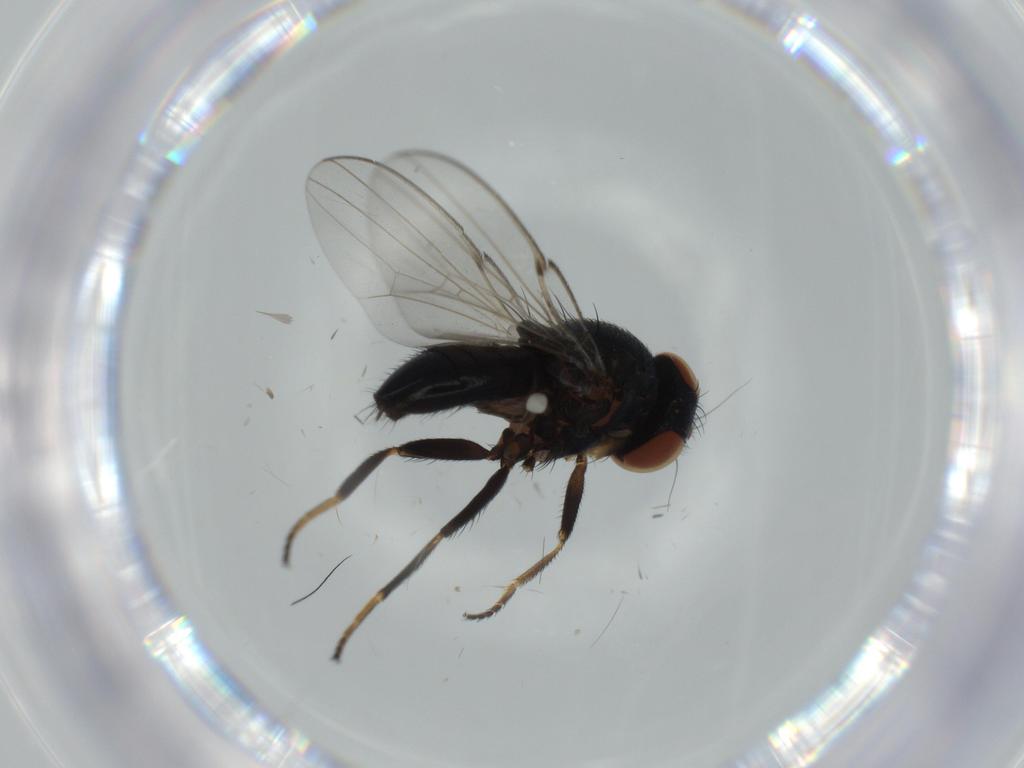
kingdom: Animalia
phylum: Arthropoda
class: Insecta
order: Diptera
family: Milichiidae
